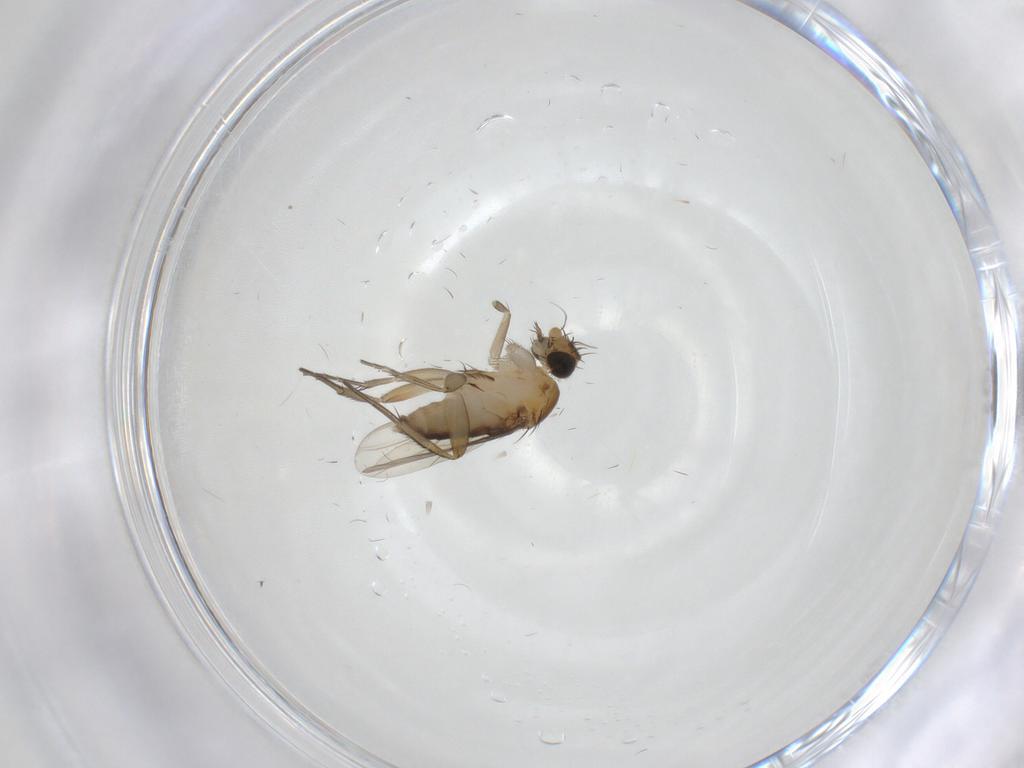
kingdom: Animalia
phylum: Arthropoda
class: Insecta
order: Diptera
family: Phoridae
